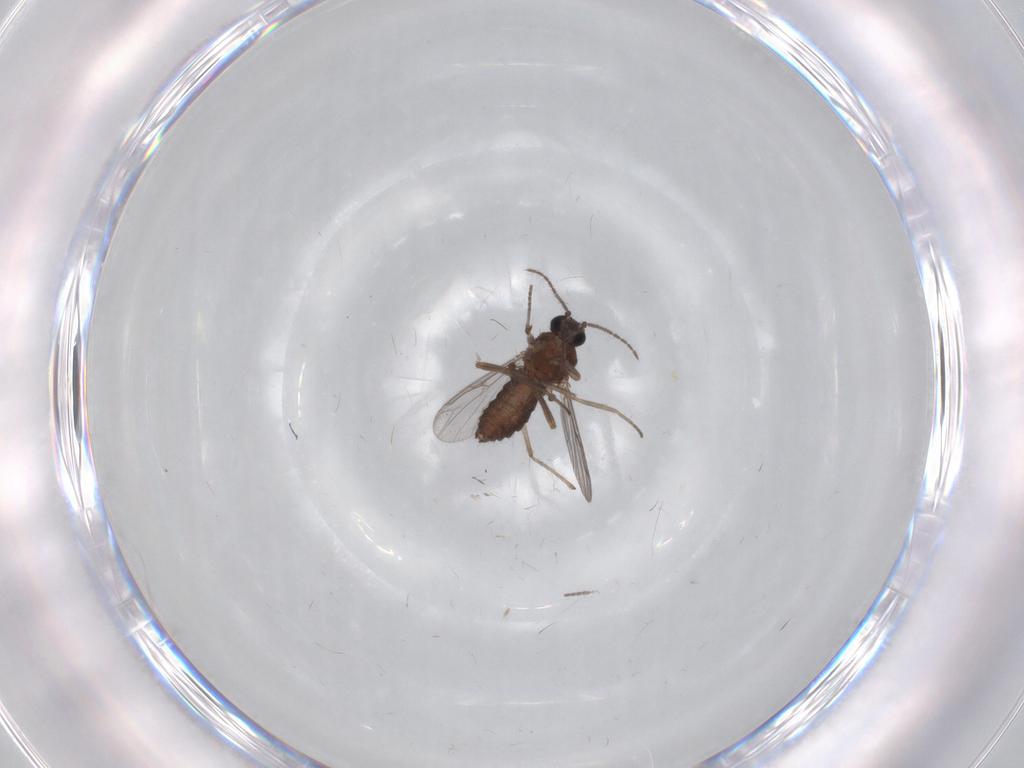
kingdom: Animalia
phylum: Arthropoda
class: Insecta
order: Diptera
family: Ceratopogonidae
